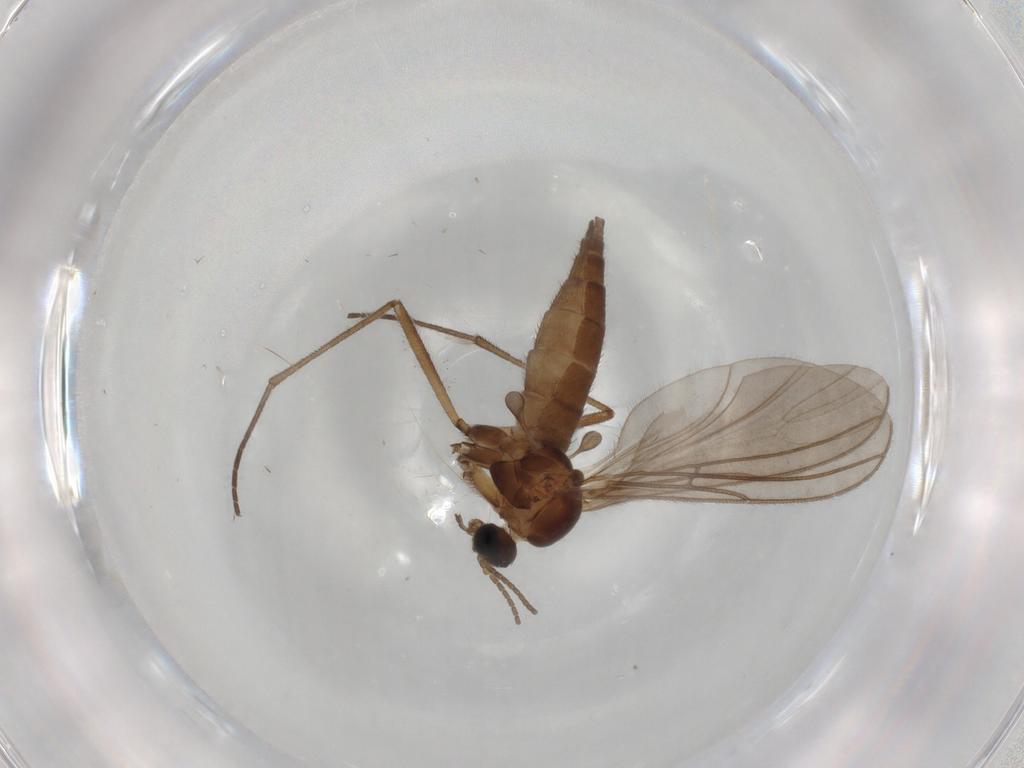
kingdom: Animalia
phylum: Arthropoda
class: Insecta
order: Diptera
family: Sciaridae
